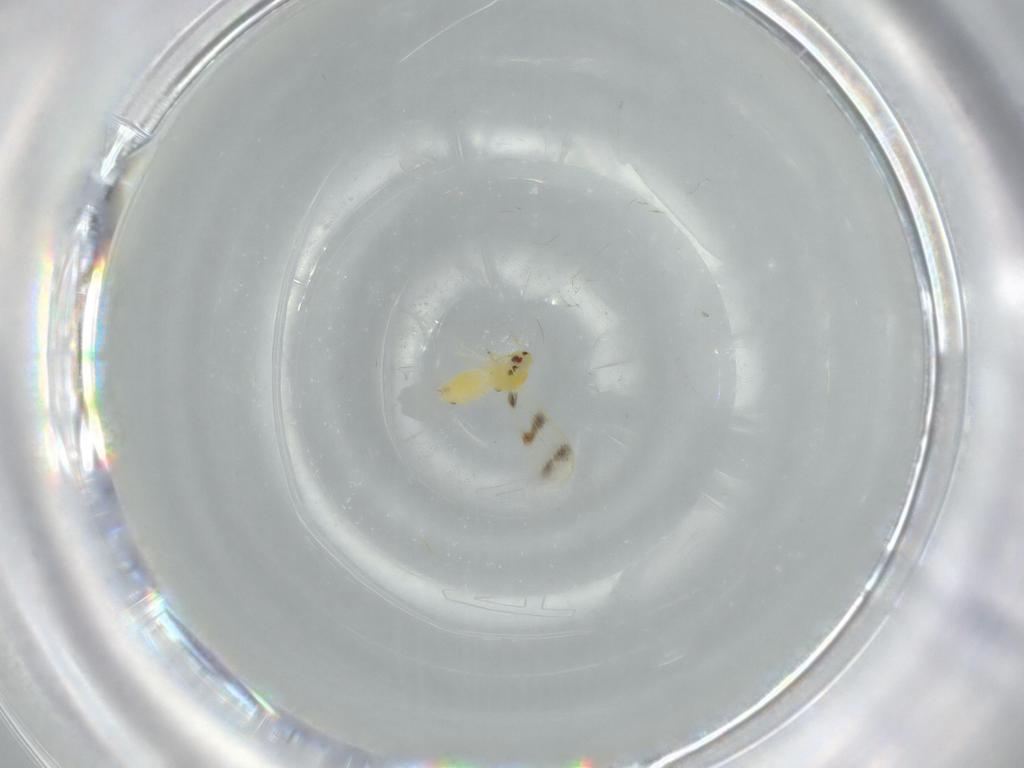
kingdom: Animalia
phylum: Arthropoda
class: Insecta
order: Hemiptera
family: Aleyrodidae
